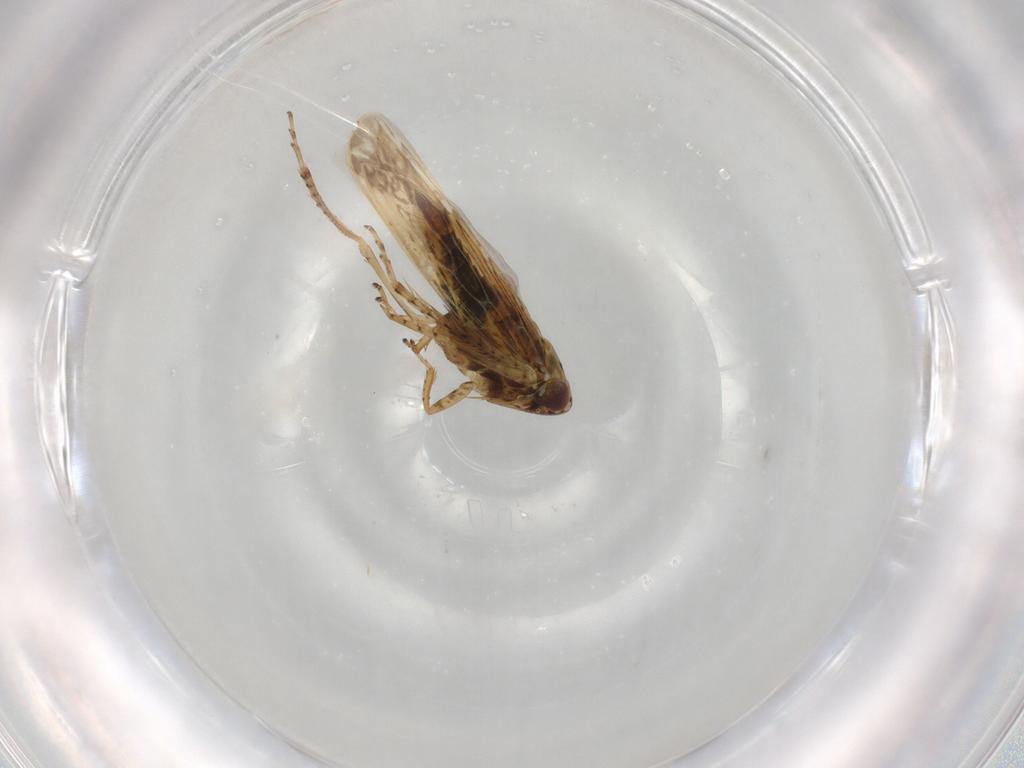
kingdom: Animalia
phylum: Arthropoda
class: Insecta
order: Hemiptera
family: Cicadellidae
